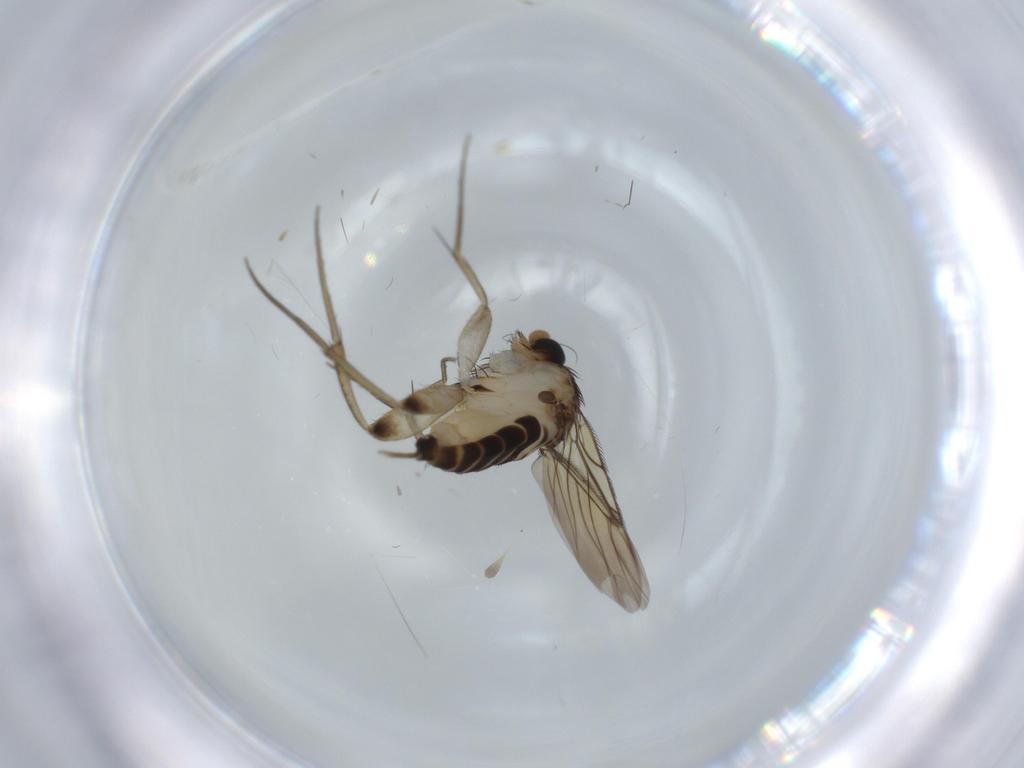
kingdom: Animalia
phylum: Arthropoda
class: Insecta
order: Diptera
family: Phoridae
